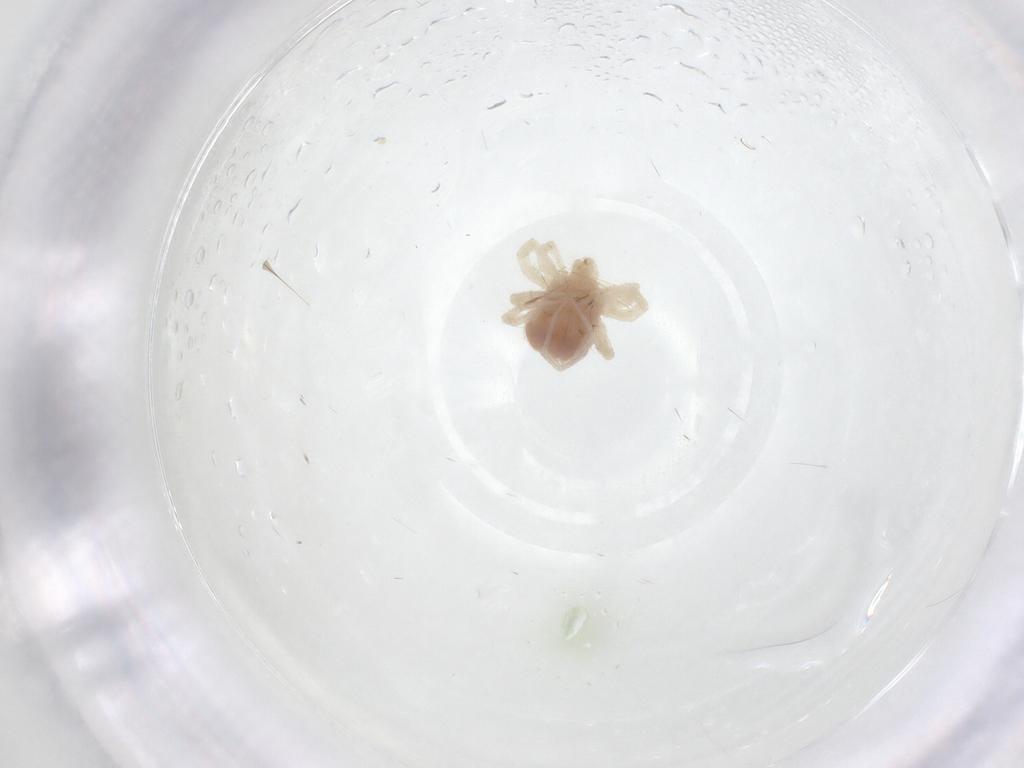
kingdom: Animalia
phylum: Arthropoda
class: Arachnida
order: Trombidiformes
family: Anystidae
